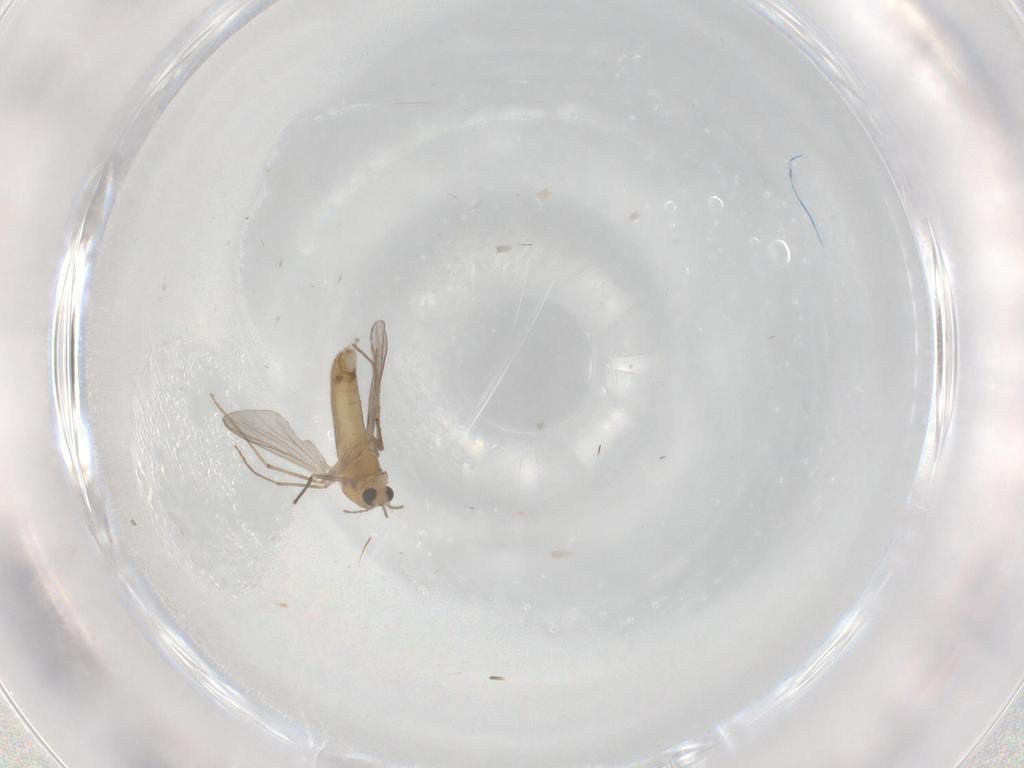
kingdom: Animalia
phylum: Arthropoda
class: Insecta
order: Diptera
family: Chironomidae
